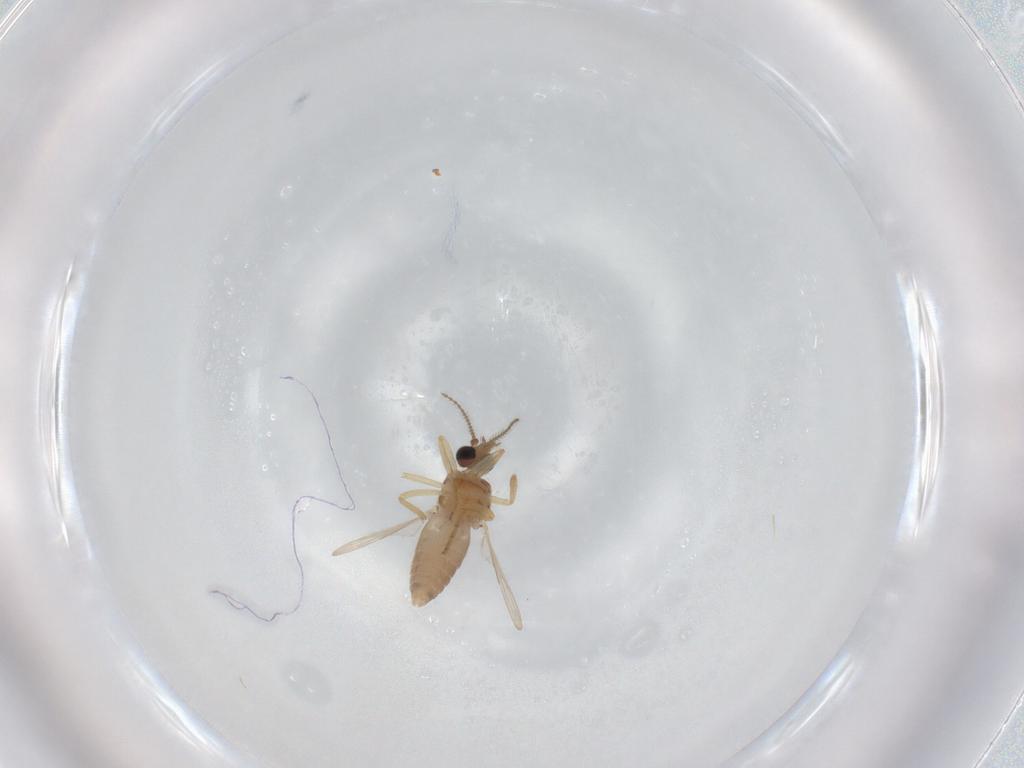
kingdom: Animalia
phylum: Arthropoda
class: Insecta
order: Diptera
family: Ceratopogonidae
